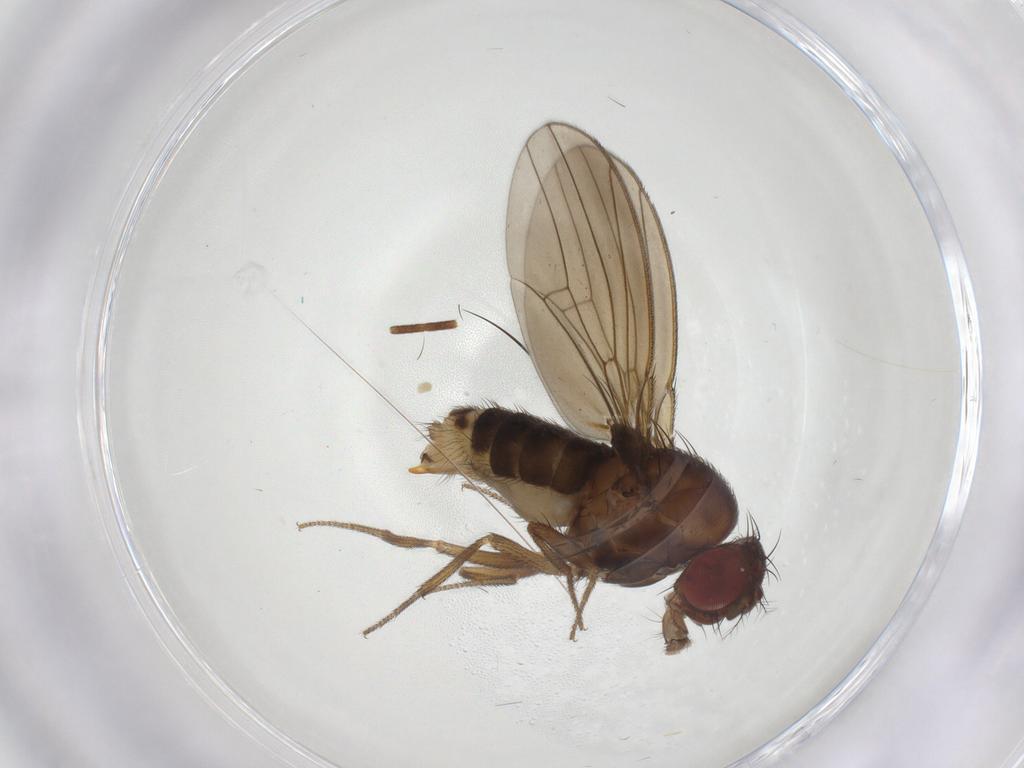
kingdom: Animalia
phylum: Arthropoda
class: Insecta
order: Diptera
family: Drosophilidae
